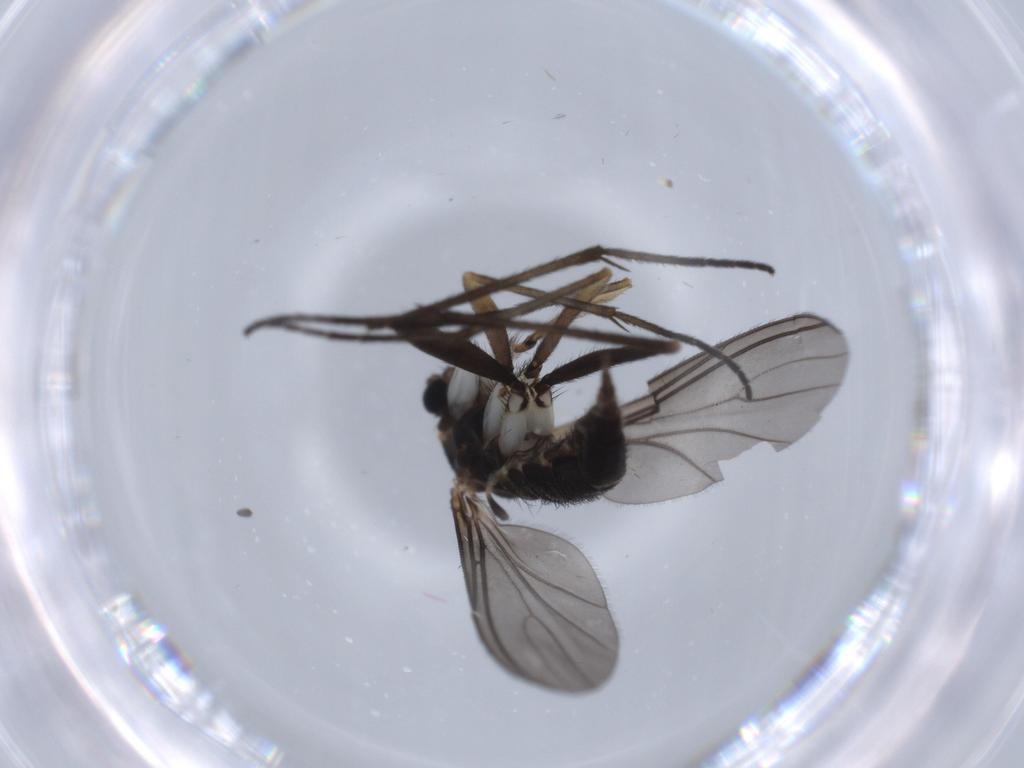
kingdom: Animalia
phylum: Arthropoda
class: Insecta
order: Diptera
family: Sciaridae
